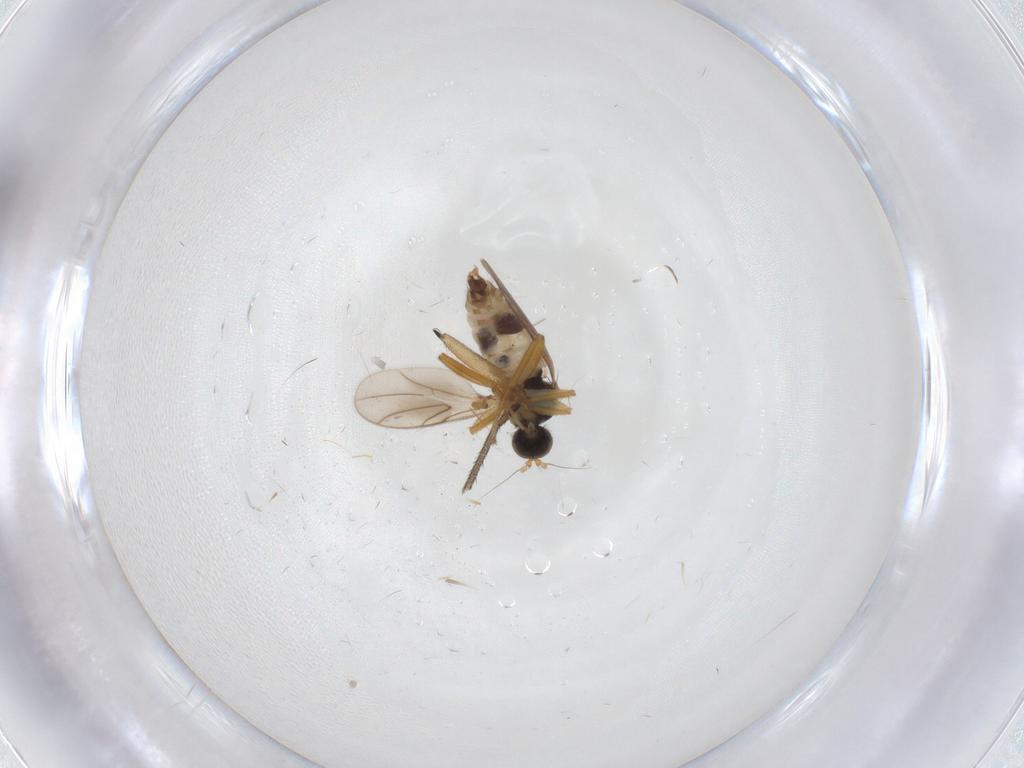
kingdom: Animalia
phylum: Arthropoda
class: Insecta
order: Diptera
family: Hybotidae
